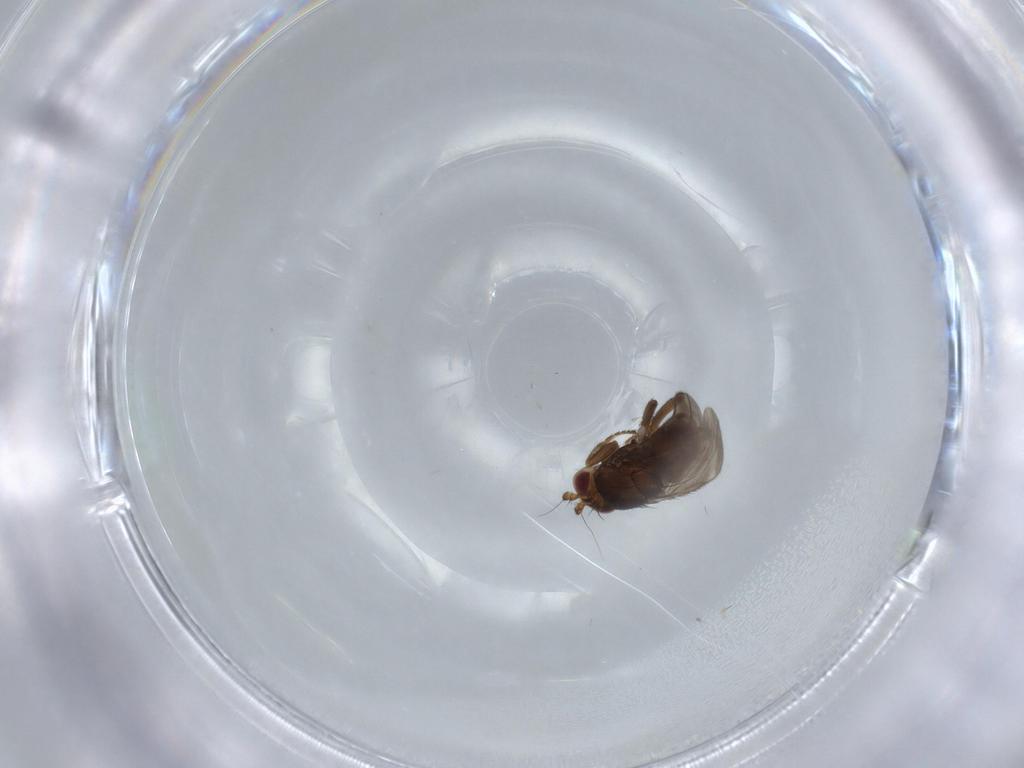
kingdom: Animalia
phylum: Arthropoda
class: Insecta
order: Diptera
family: Sphaeroceridae
